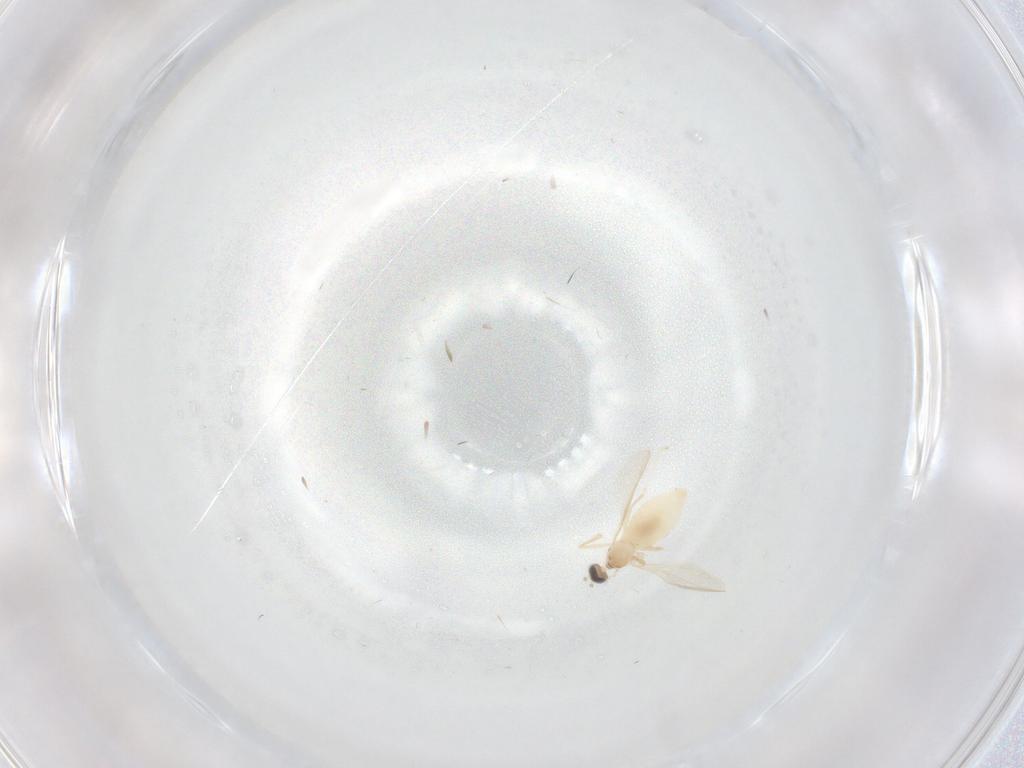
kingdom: Animalia
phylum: Arthropoda
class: Insecta
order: Diptera
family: Cecidomyiidae
